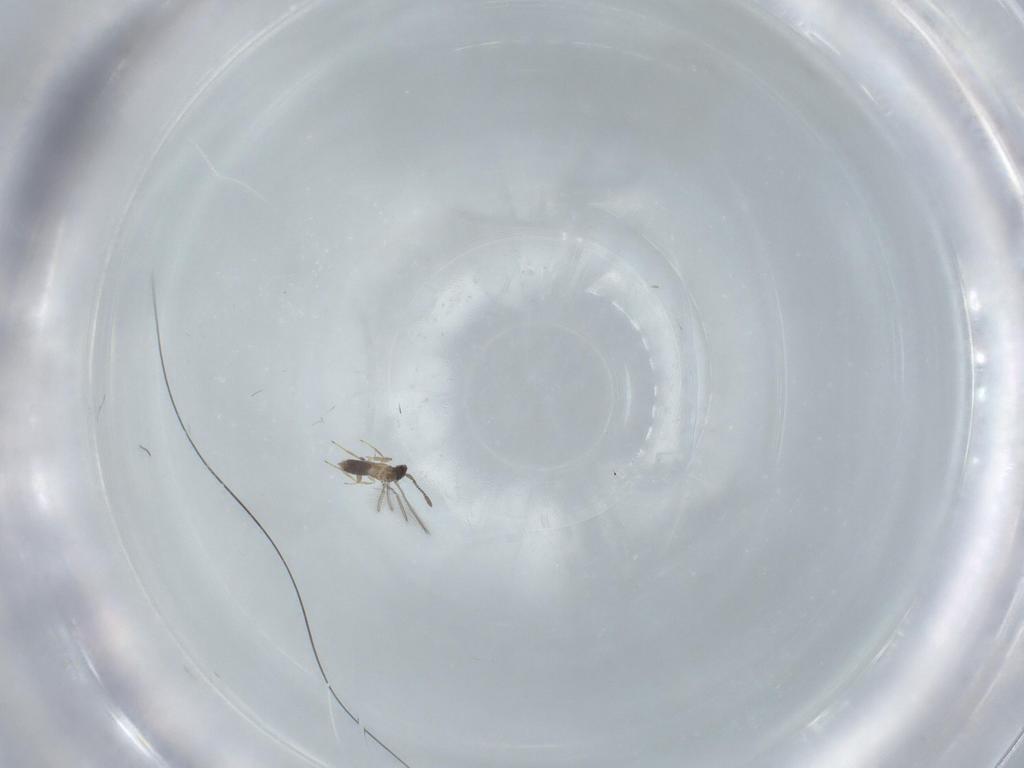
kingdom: Animalia
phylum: Arthropoda
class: Insecta
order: Hymenoptera
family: Mymaridae
